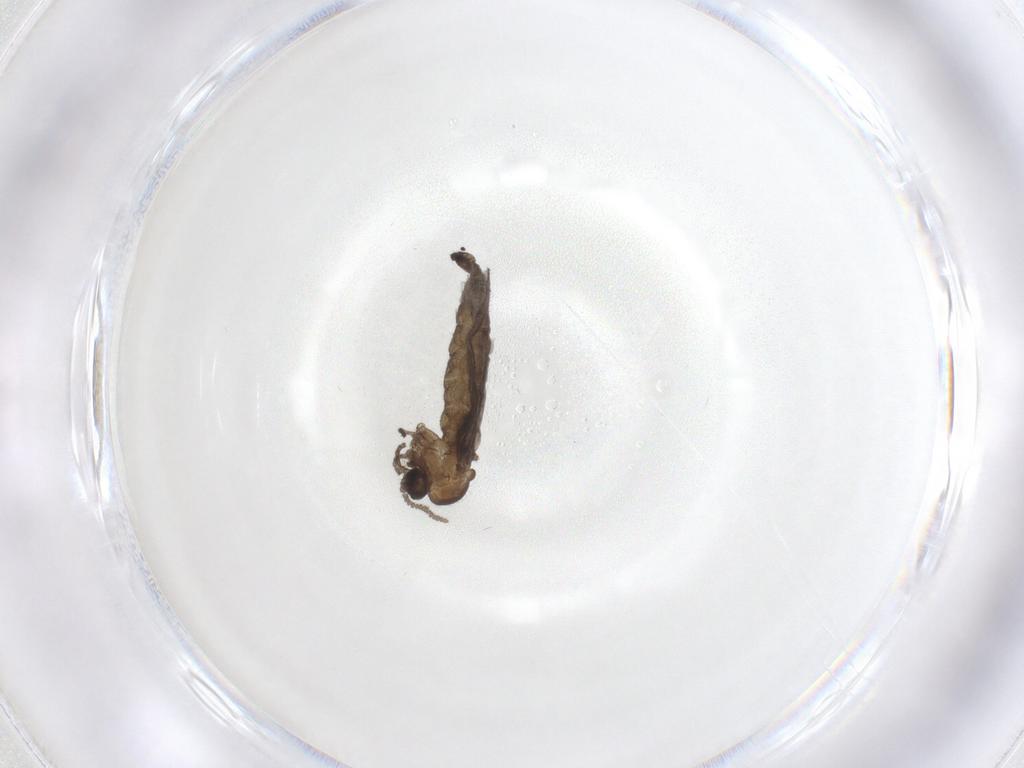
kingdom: Animalia
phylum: Arthropoda
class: Insecta
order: Diptera
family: Sciaridae
